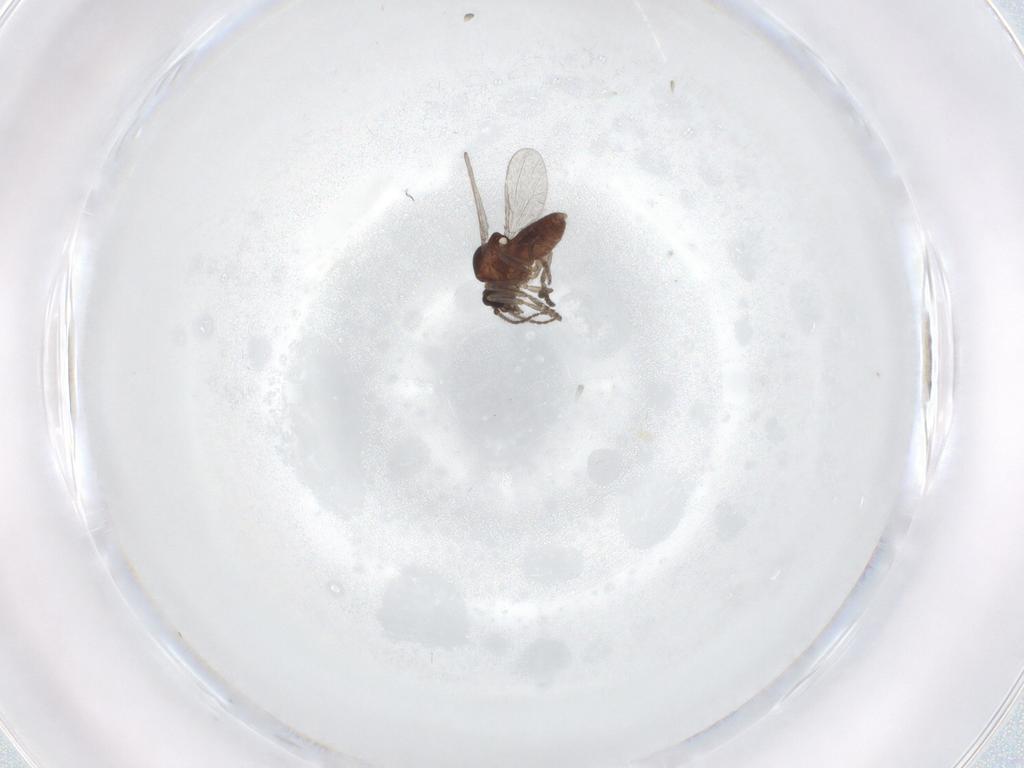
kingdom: Animalia
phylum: Arthropoda
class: Insecta
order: Diptera
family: Ceratopogonidae
